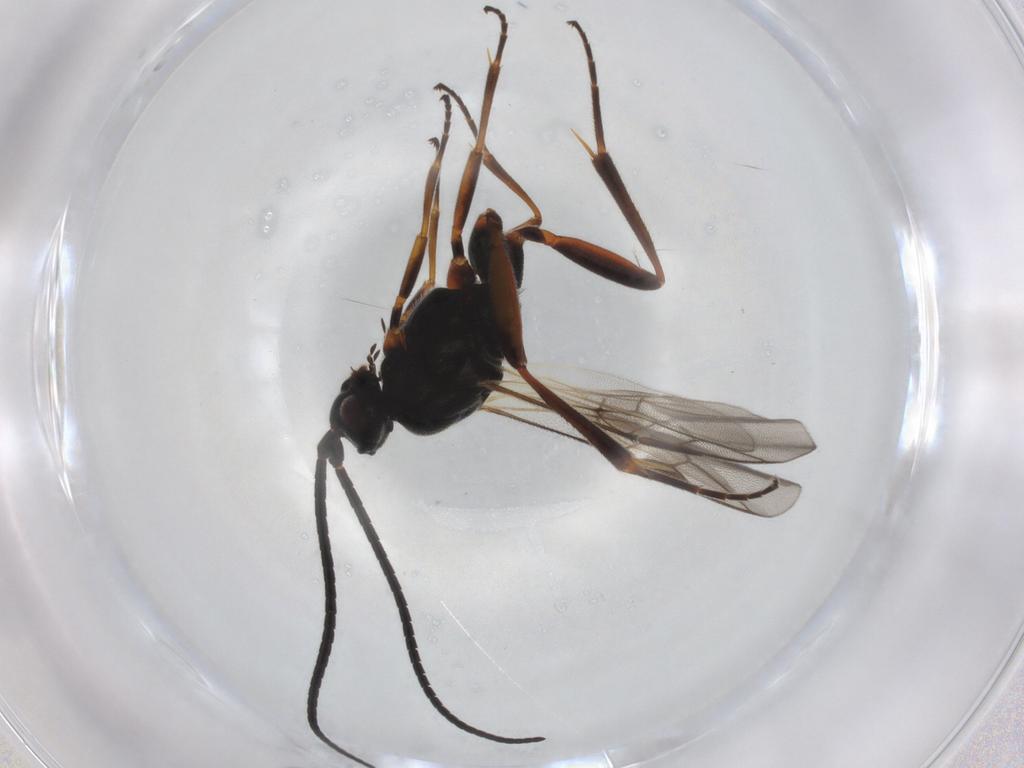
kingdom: Animalia
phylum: Arthropoda
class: Insecta
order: Hymenoptera
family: Braconidae
